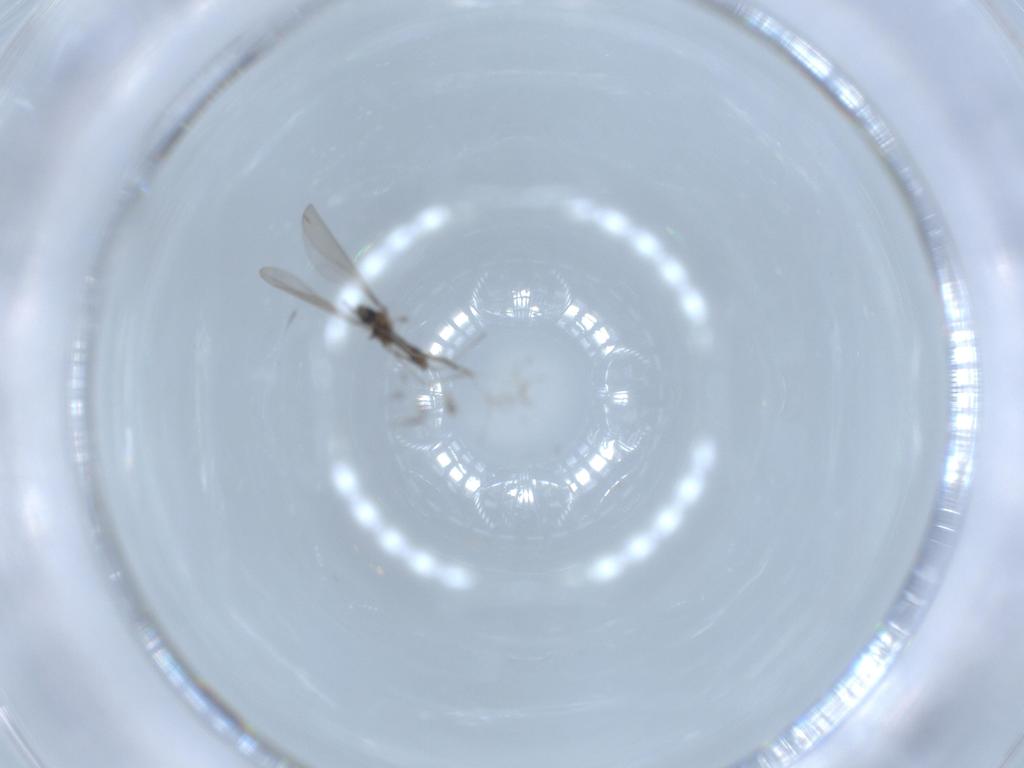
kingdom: Animalia
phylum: Arthropoda
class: Insecta
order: Diptera
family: Cecidomyiidae
